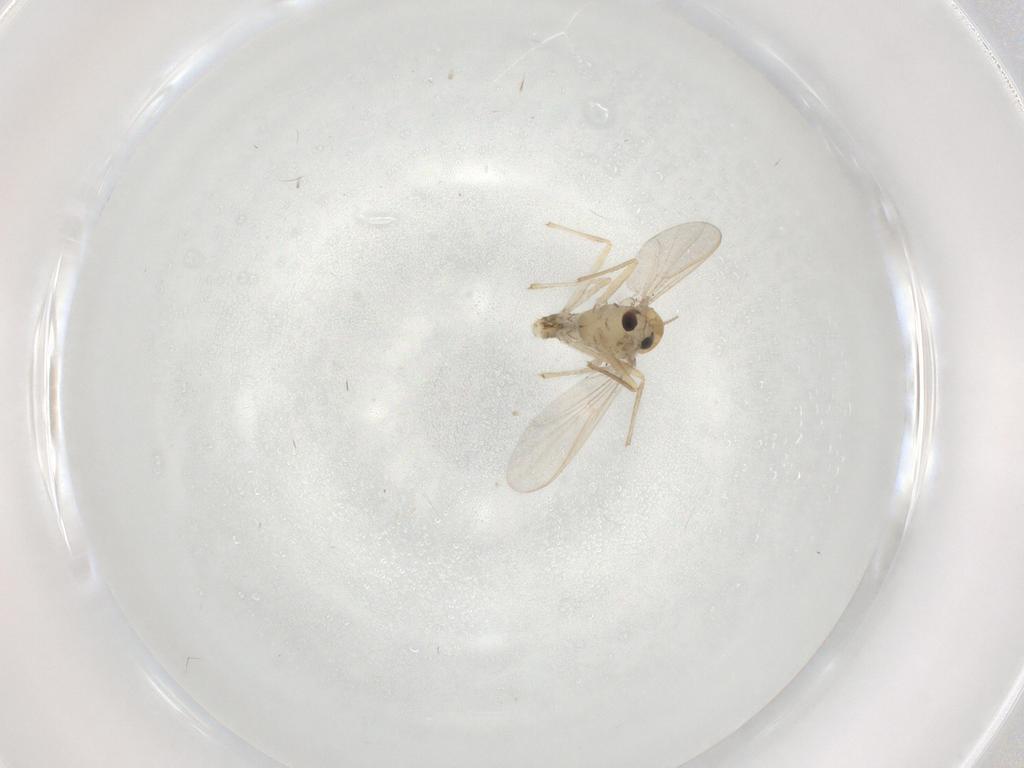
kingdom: Animalia
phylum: Arthropoda
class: Insecta
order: Diptera
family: Chironomidae
